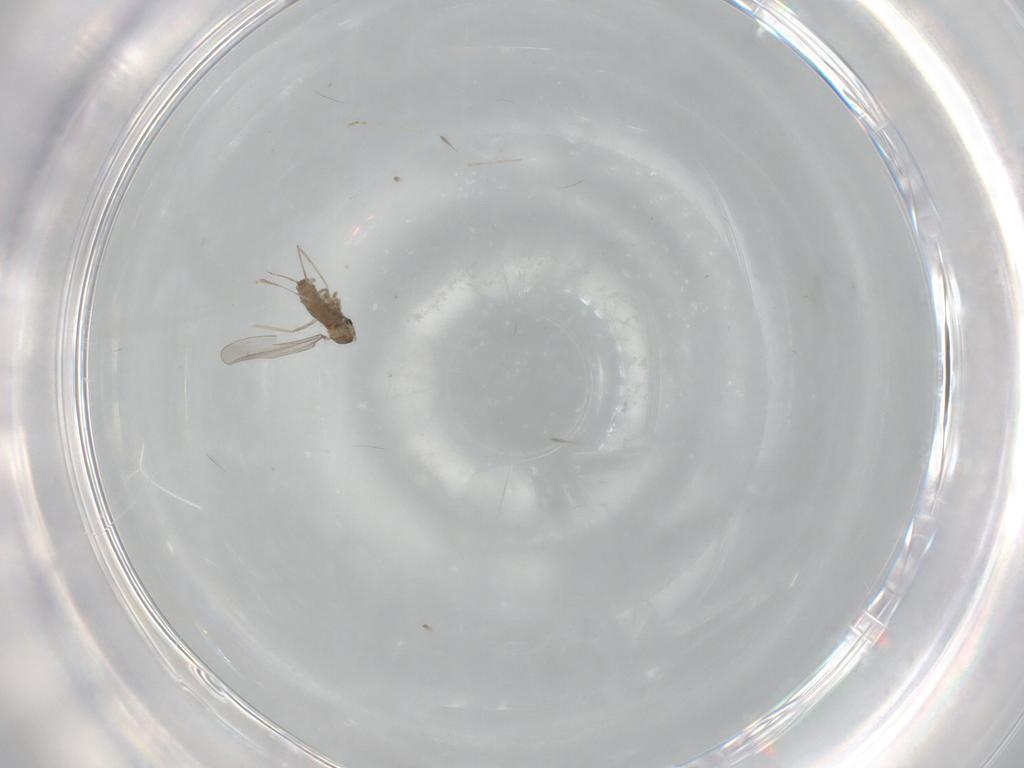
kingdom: Animalia
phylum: Arthropoda
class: Insecta
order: Diptera
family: Cecidomyiidae
